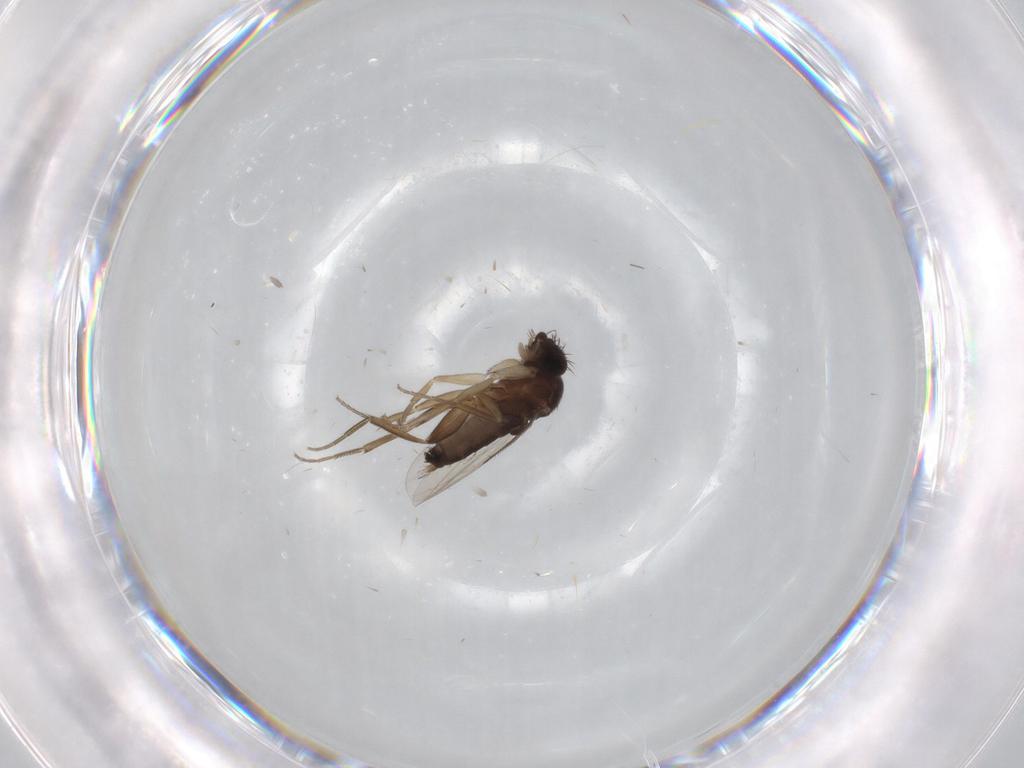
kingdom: Animalia
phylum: Arthropoda
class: Insecta
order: Diptera
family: Phoridae
